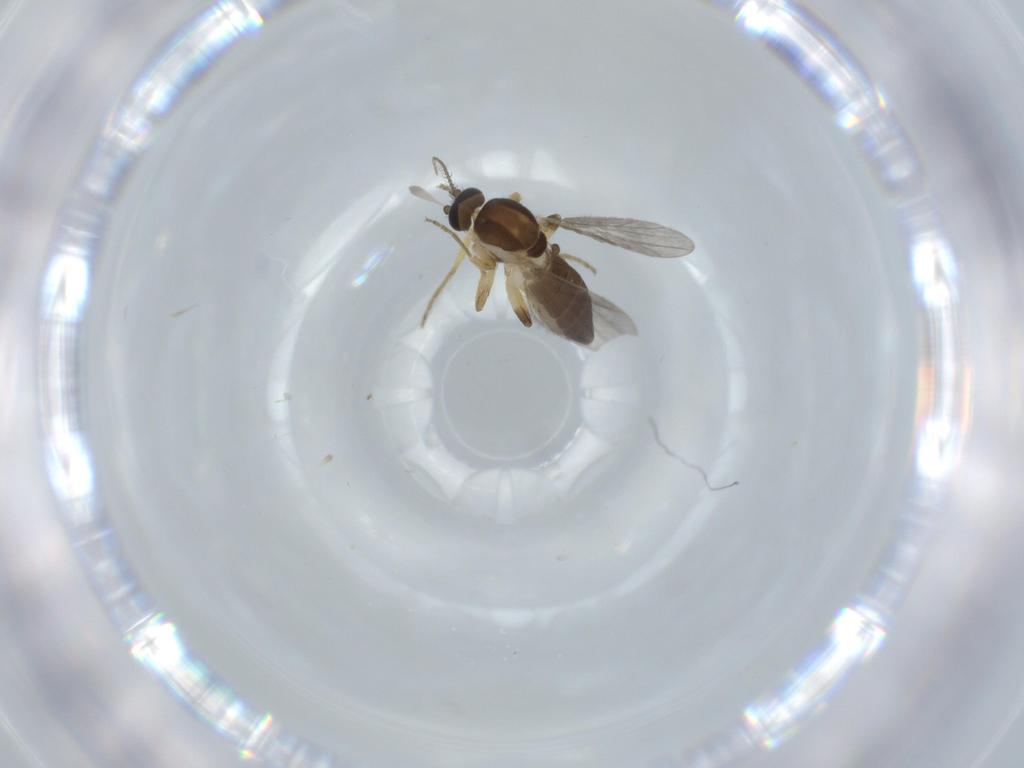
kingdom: Animalia
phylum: Arthropoda
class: Insecta
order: Diptera
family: Ceratopogonidae
